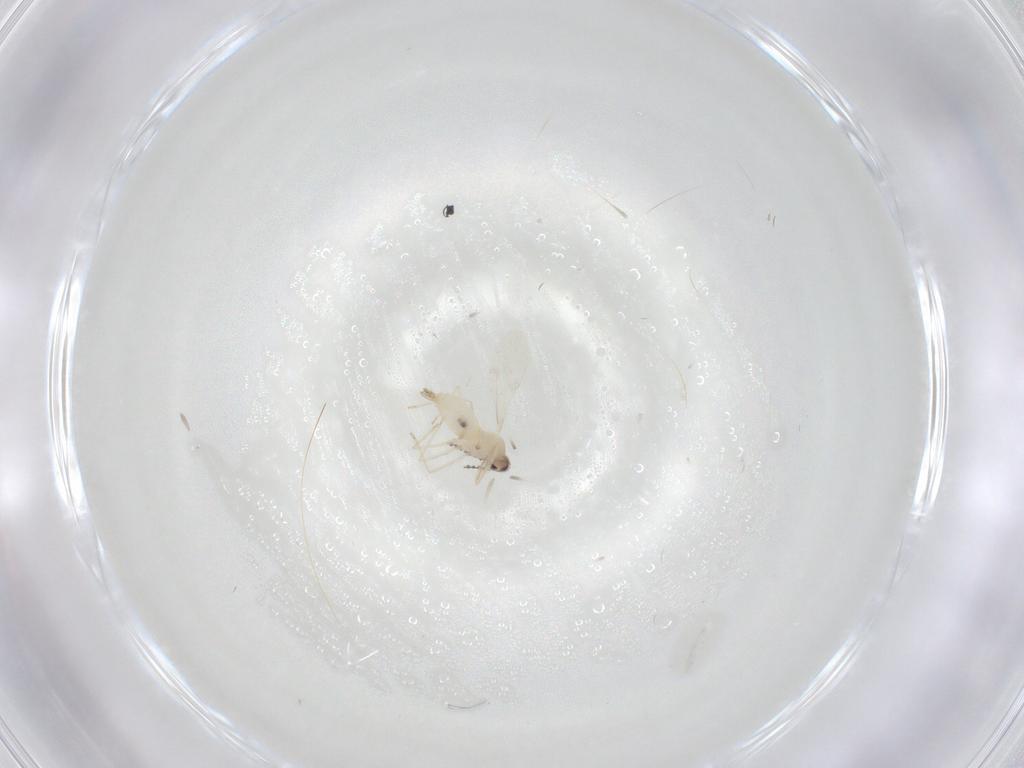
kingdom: Animalia
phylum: Arthropoda
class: Insecta
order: Diptera
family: Phoridae
